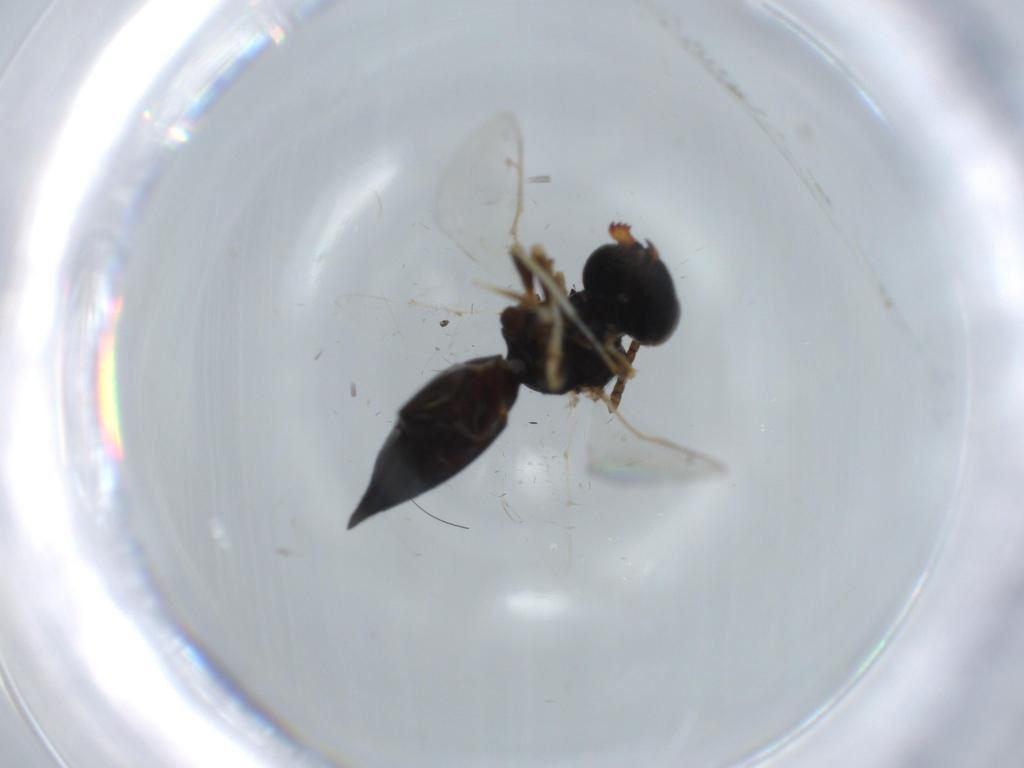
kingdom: Animalia
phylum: Arthropoda
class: Insecta
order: Hymenoptera
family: Pteromalidae
